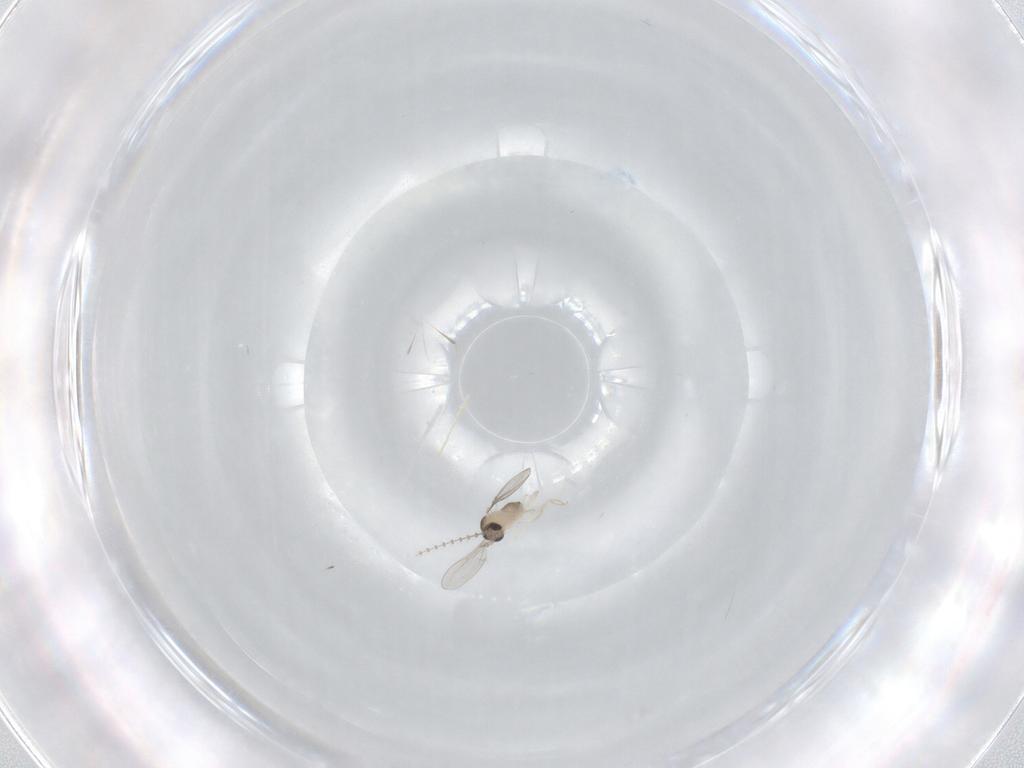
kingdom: Animalia
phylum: Arthropoda
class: Insecta
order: Diptera
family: Cecidomyiidae
